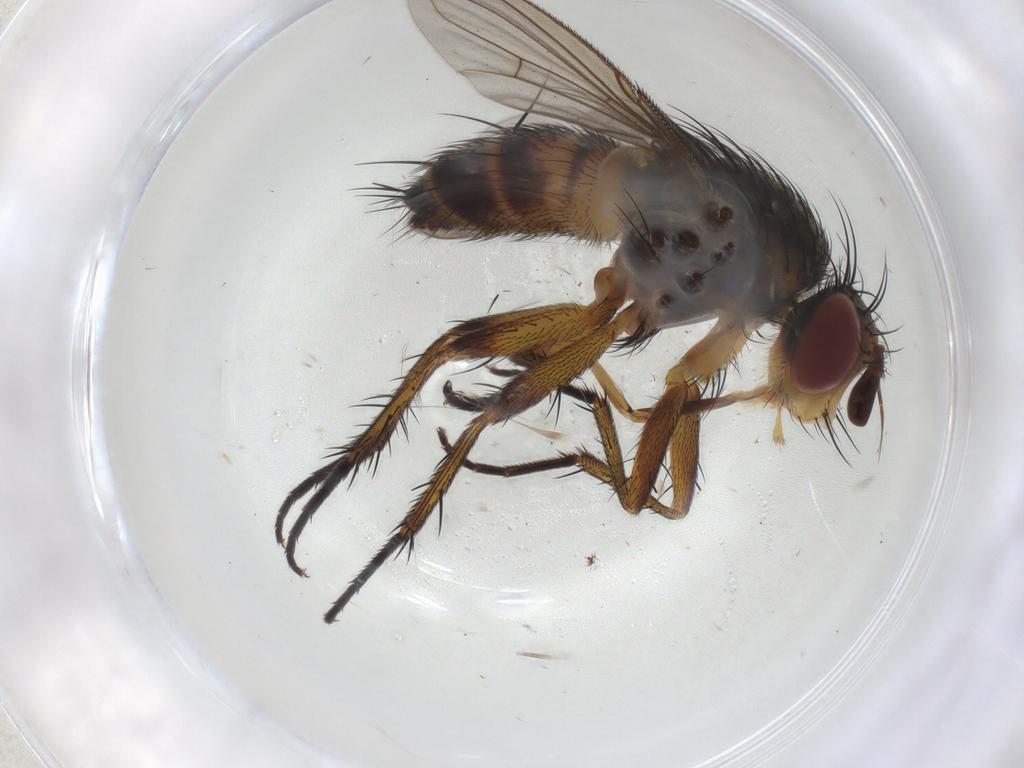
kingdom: Animalia
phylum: Arthropoda
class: Insecta
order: Diptera
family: Tachinidae
